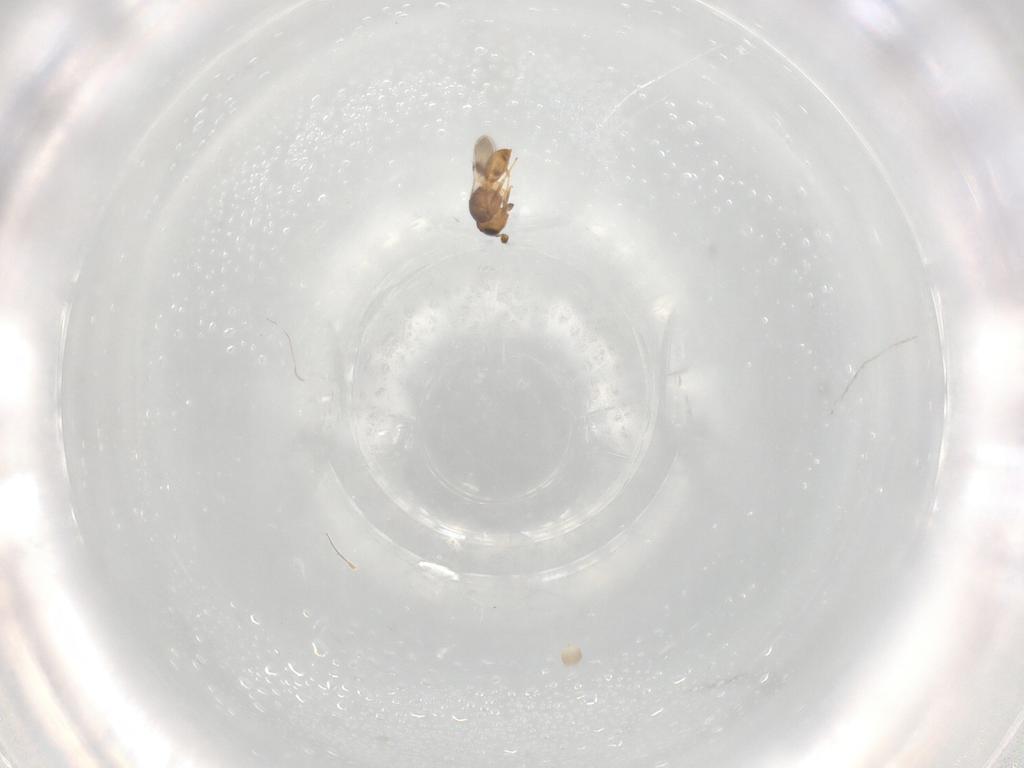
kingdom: Animalia
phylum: Arthropoda
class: Insecta
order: Hymenoptera
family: Scelionidae
